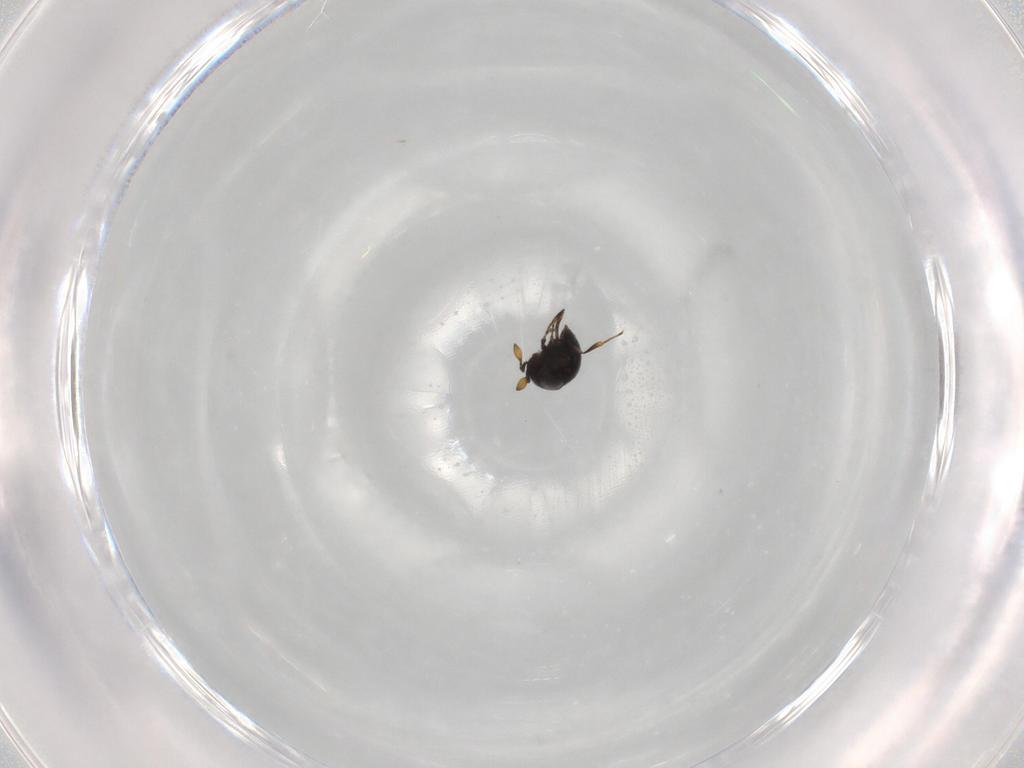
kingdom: Animalia
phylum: Arthropoda
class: Insecta
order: Hymenoptera
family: Scelionidae
